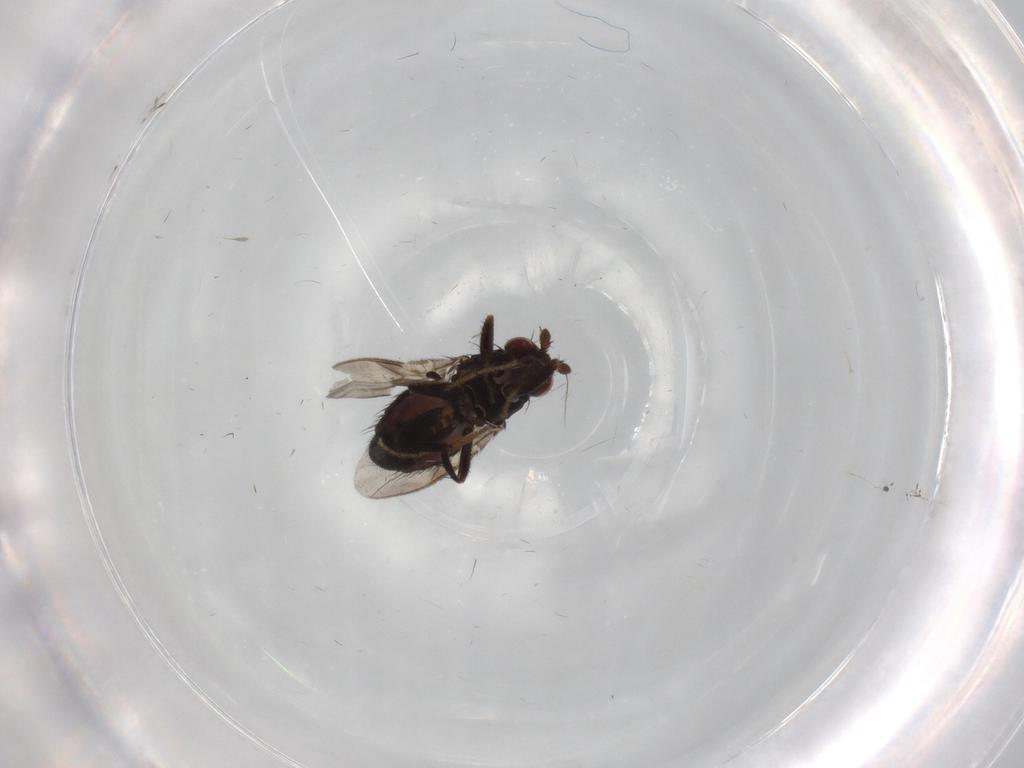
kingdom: Animalia
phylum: Arthropoda
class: Insecta
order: Diptera
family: Sphaeroceridae
